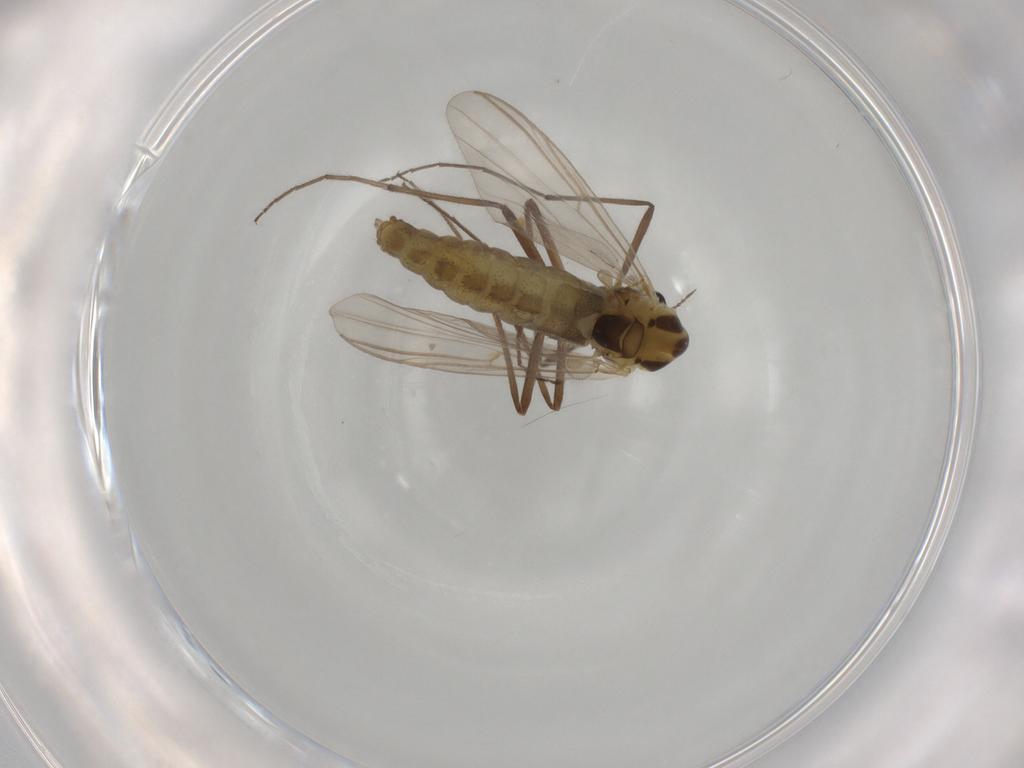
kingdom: Animalia
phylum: Arthropoda
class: Insecta
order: Diptera
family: Chironomidae
